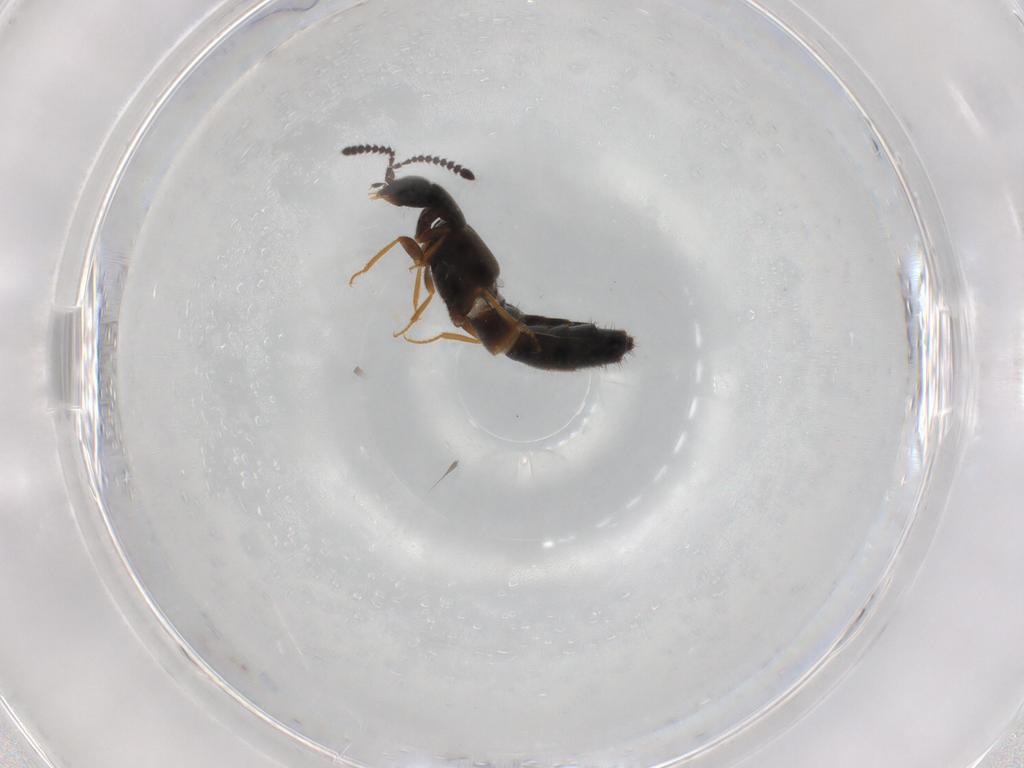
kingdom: Animalia
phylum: Arthropoda
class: Insecta
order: Coleoptera
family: Staphylinidae
